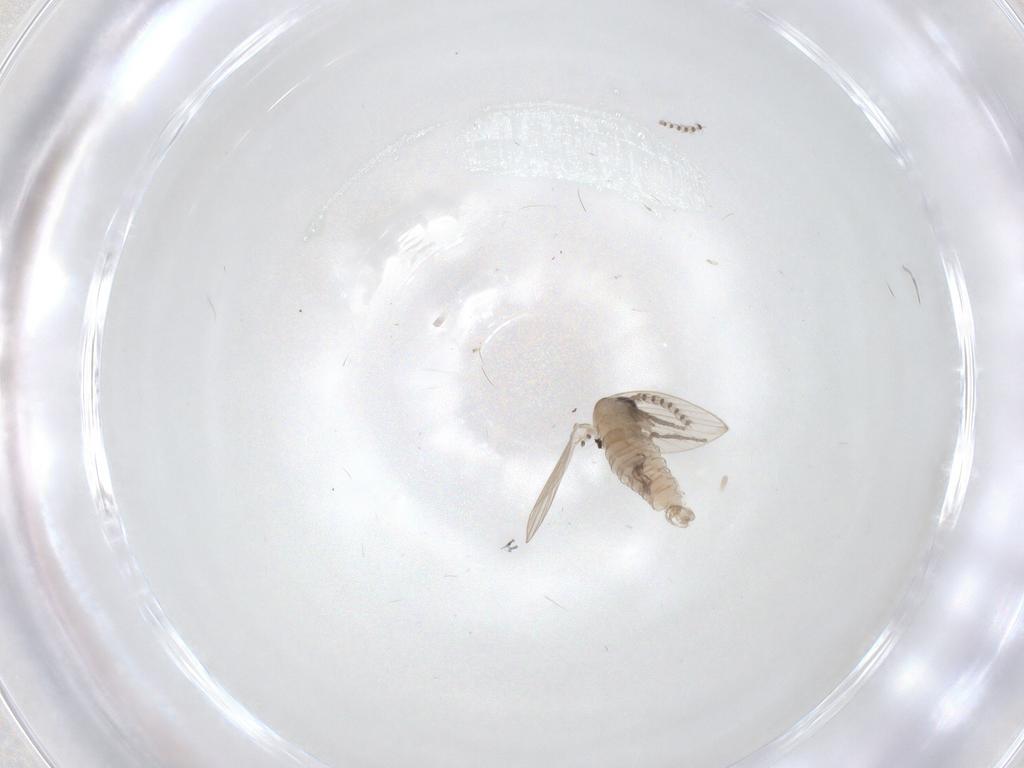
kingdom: Animalia
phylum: Arthropoda
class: Insecta
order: Diptera
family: Psychodidae
